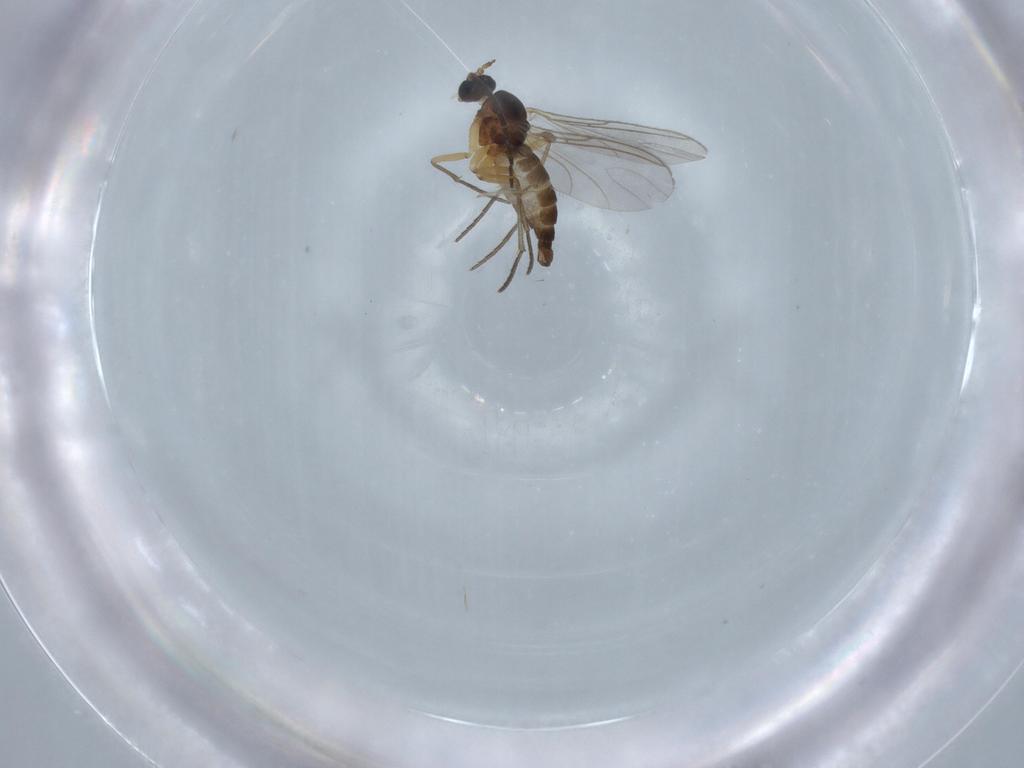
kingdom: Animalia
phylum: Arthropoda
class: Insecta
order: Diptera
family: Sciaridae
